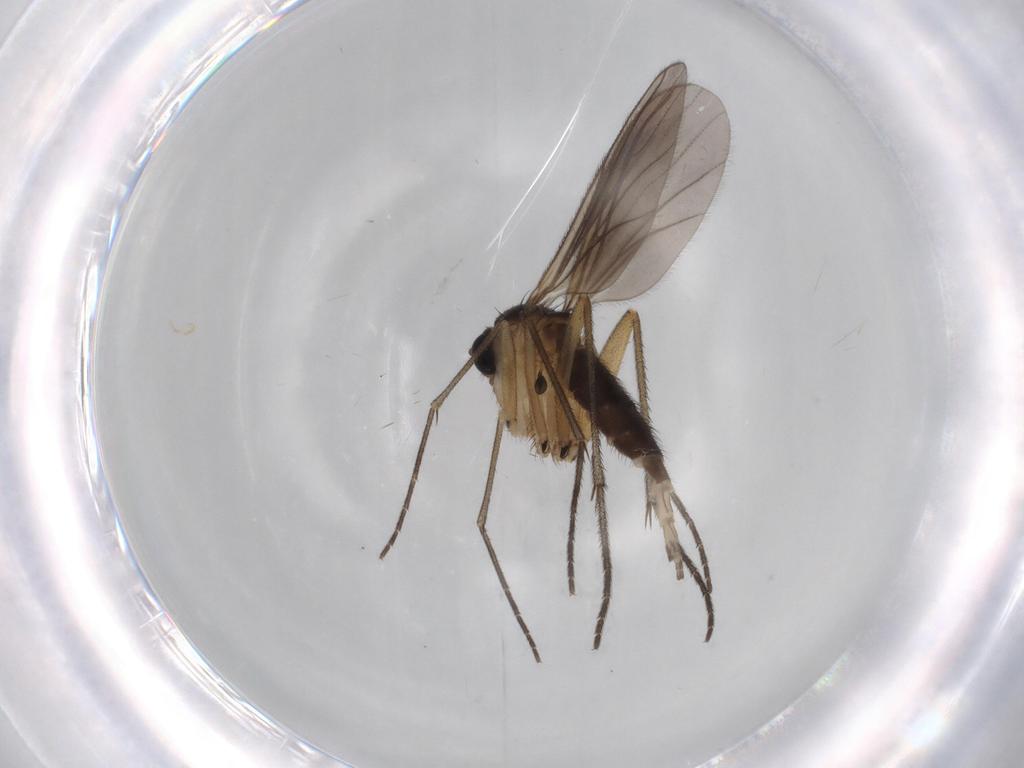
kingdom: Animalia
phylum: Arthropoda
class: Insecta
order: Diptera
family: Sciaridae
